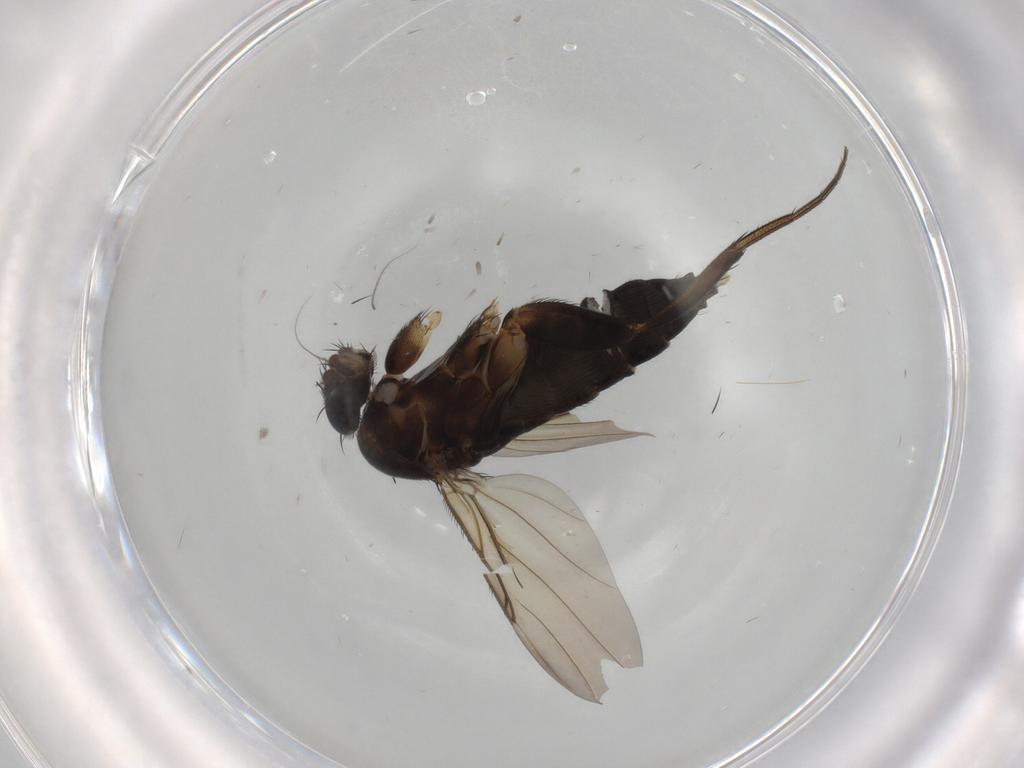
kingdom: Animalia
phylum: Arthropoda
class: Insecta
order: Diptera
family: Phoridae
